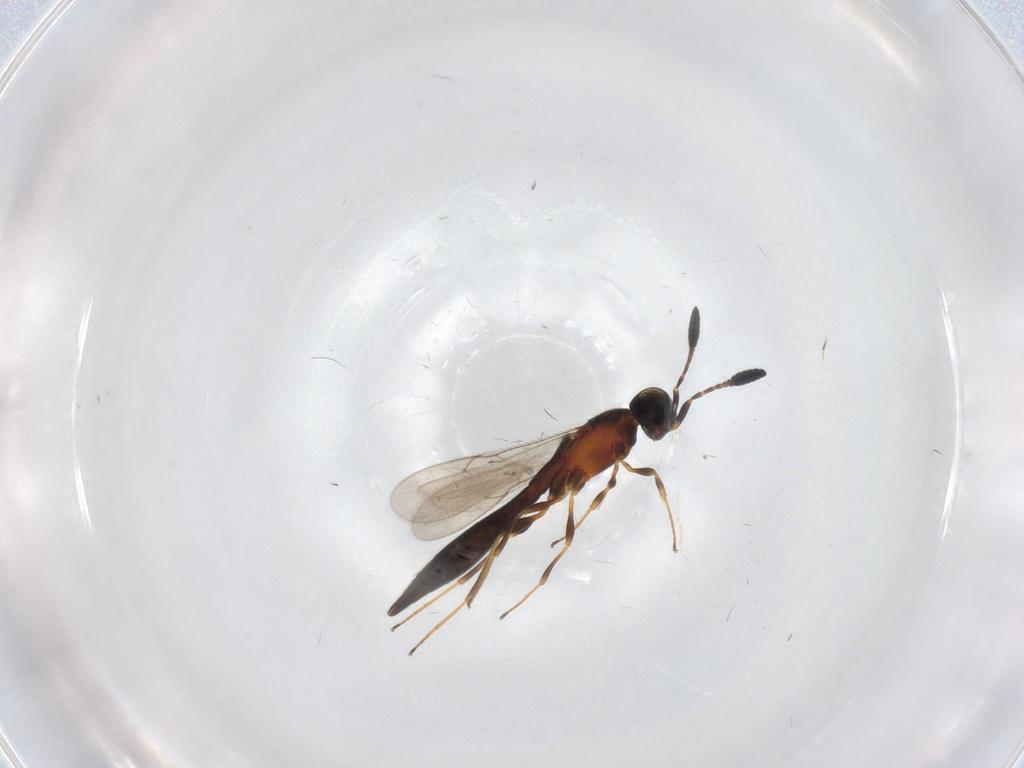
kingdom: Animalia
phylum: Arthropoda
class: Insecta
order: Hymenoptera
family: Scelionidae
